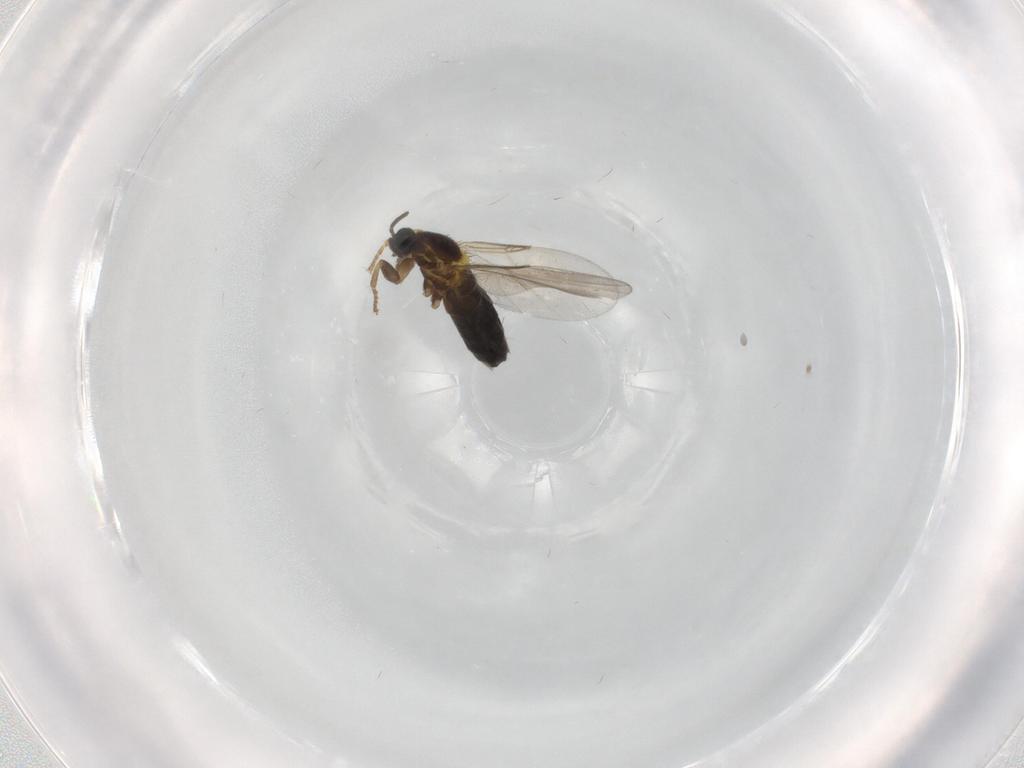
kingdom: Animalia
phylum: Arthropoda
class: Insecta
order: Diptera
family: Scatopsidae
